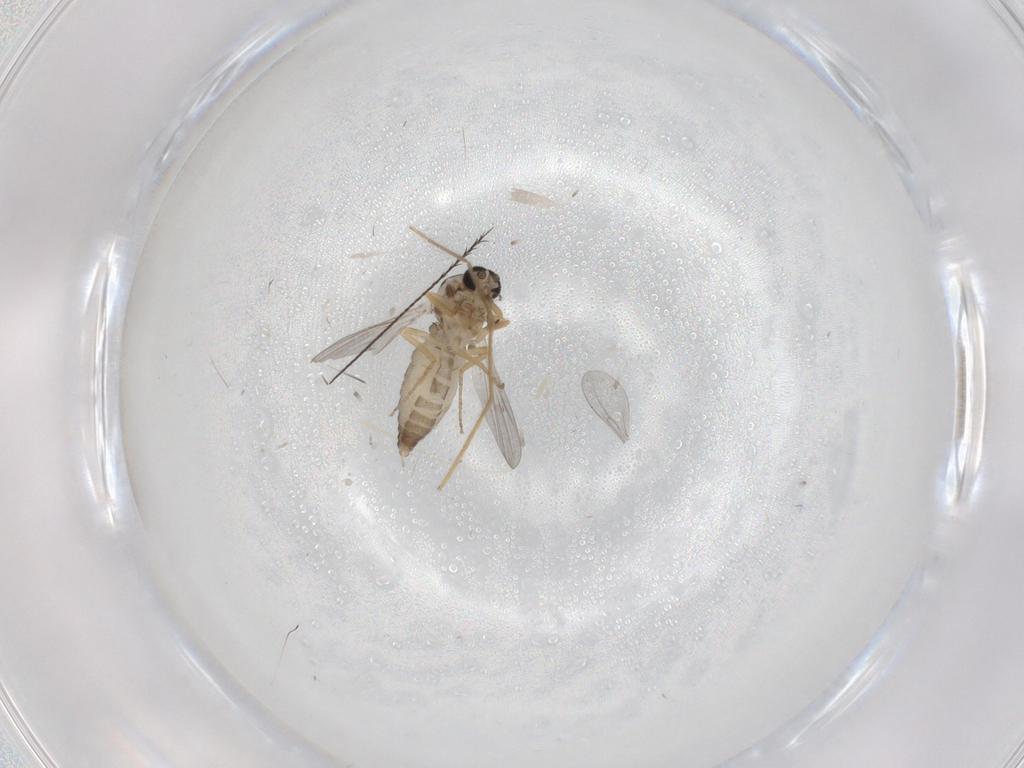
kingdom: Animalia
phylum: Arthropoda
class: Insecta
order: Diptera
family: Ceratopogonidae
